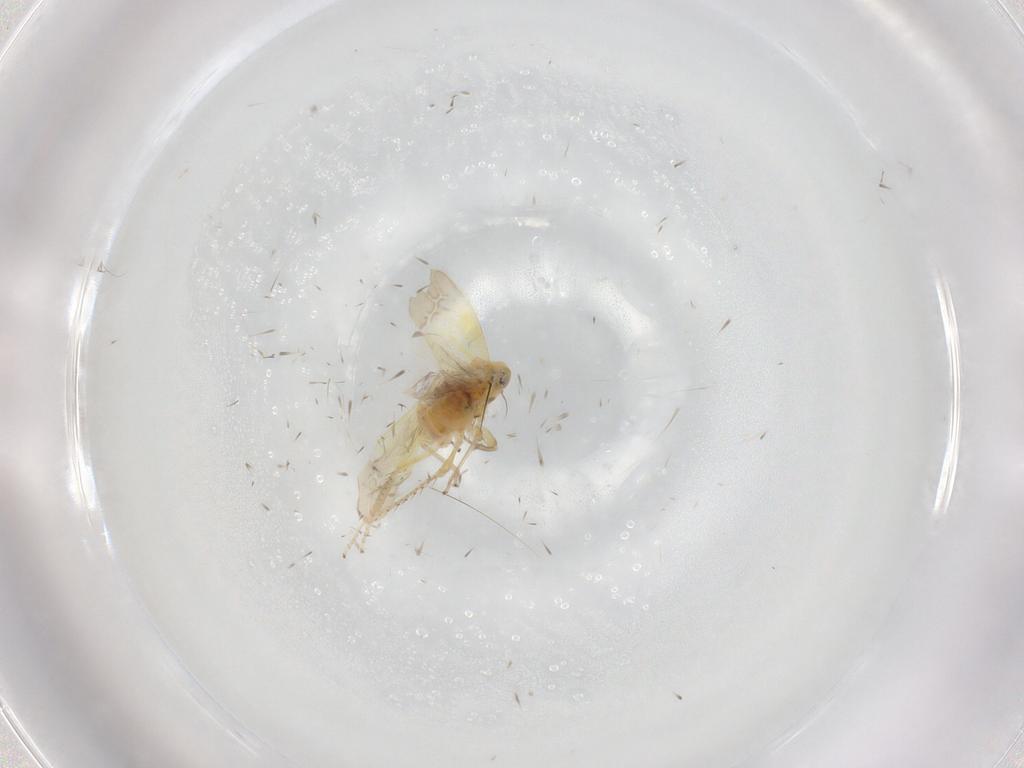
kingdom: Animalia
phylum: Arthropoda
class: Insecta
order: Hemiptera
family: Cicadellidae
